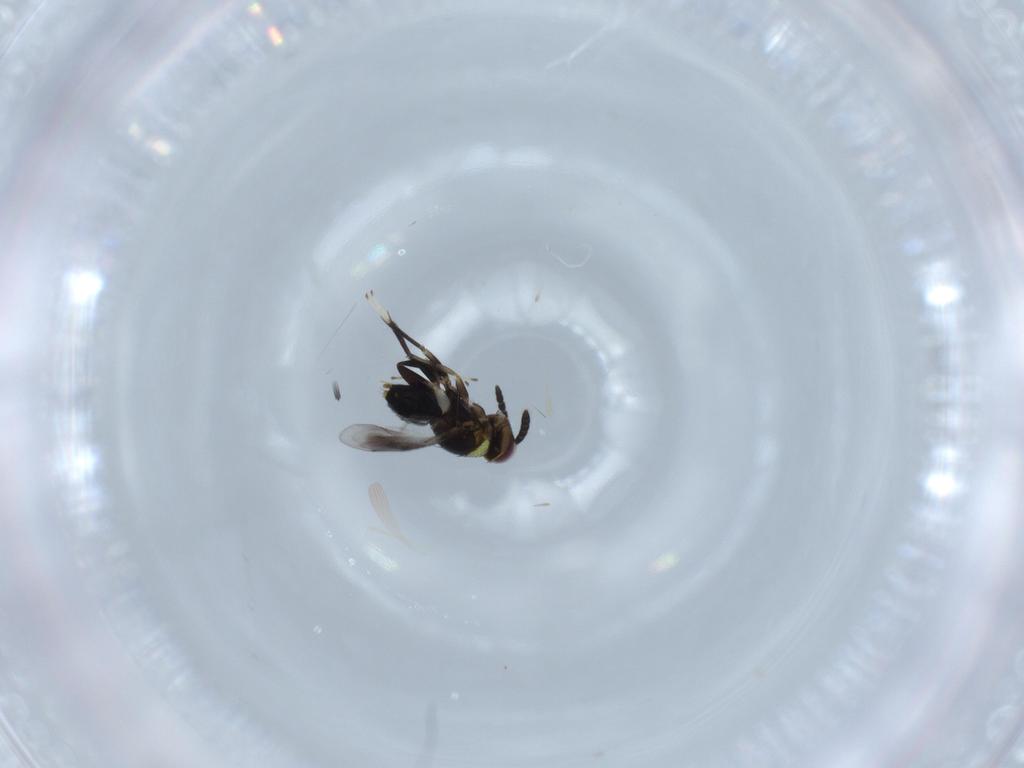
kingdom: Animalia
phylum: Arthropoda
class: Insecta
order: Hymenoptera
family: Aphelinidae
